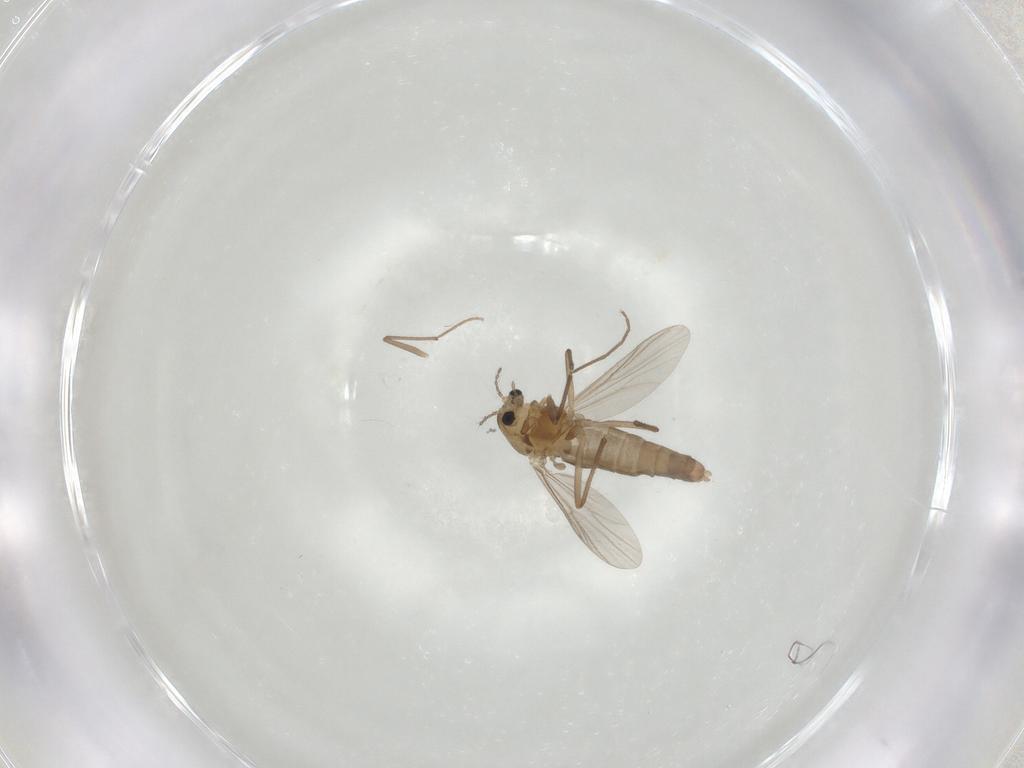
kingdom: Animalia
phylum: Arthropoda
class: Insecta
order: Diptera
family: Chironomidae
